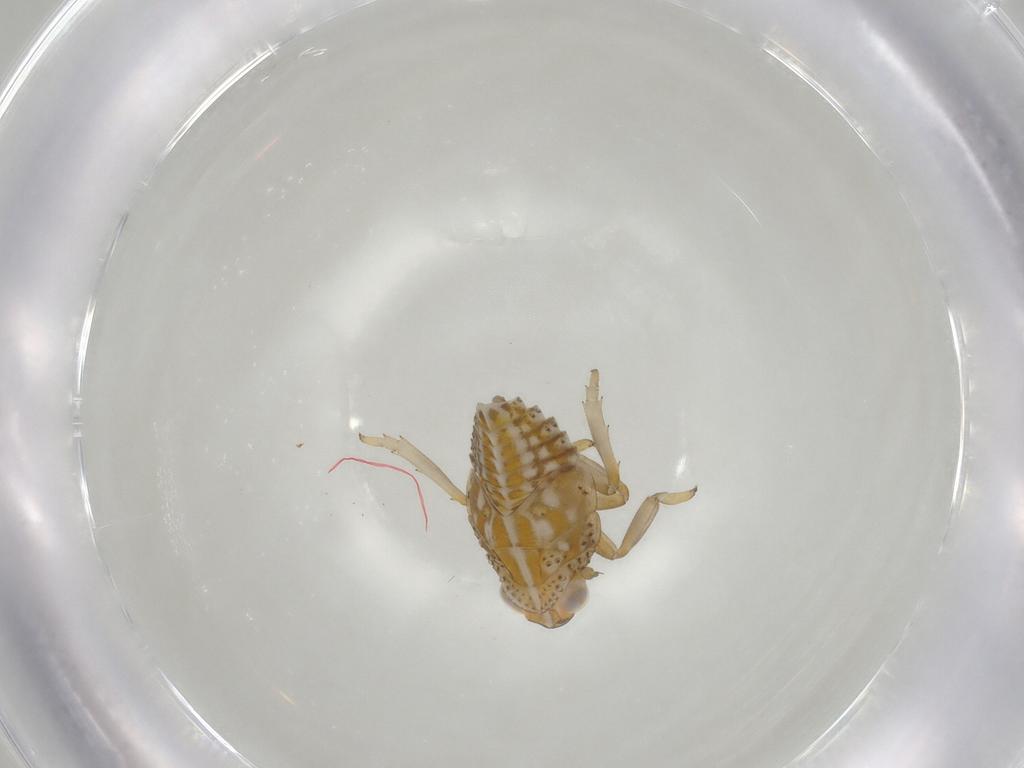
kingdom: Animalia
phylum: Arthropoda
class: Insecta
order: Hemiptera
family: Issidae
